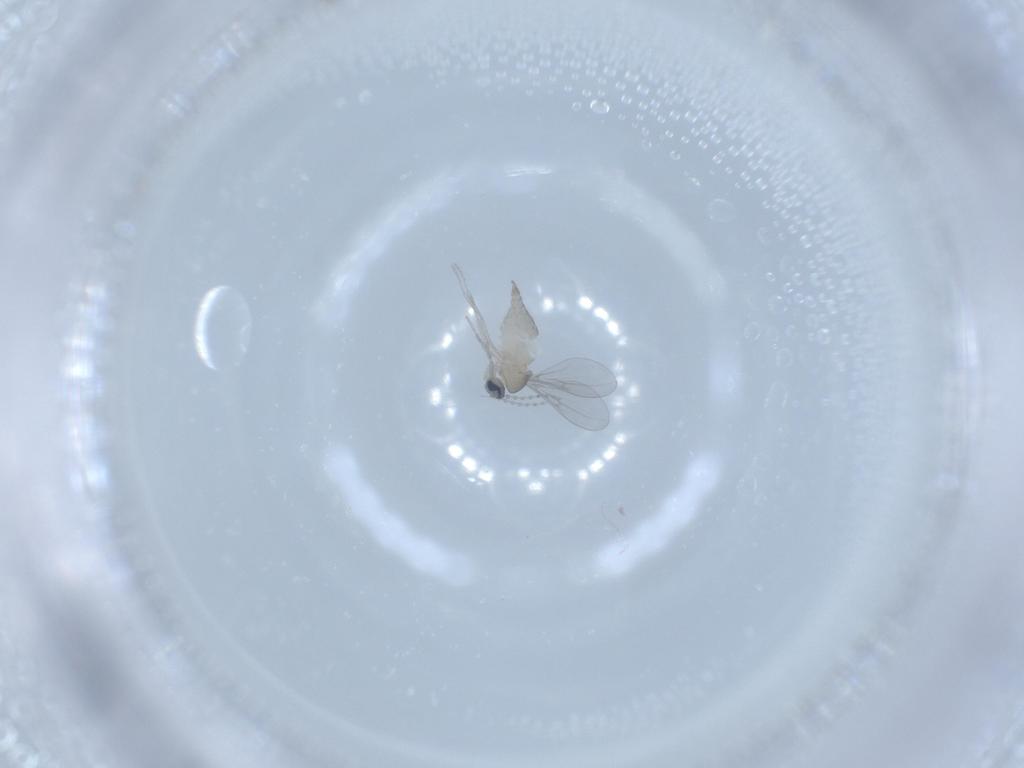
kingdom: Animalia
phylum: Arthropoda
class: Insecta
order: Diptera
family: Cecidomyiidae
